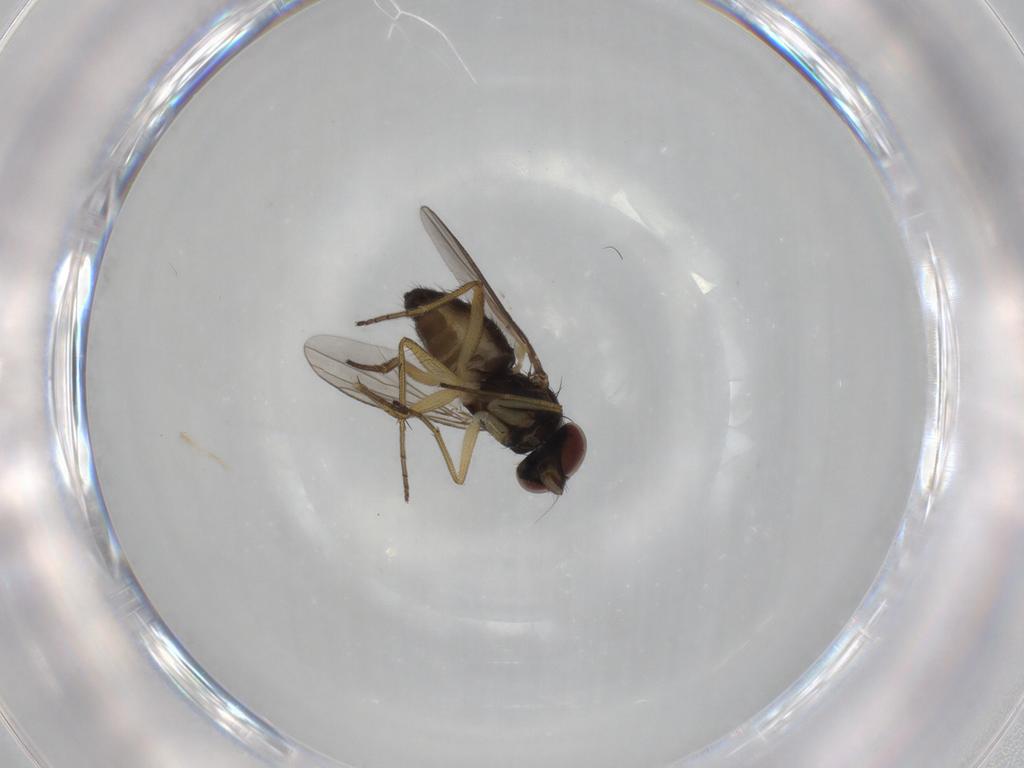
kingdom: Animalia
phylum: Arthropoda
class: Insecta
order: Diptera
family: Dolichopodidae
